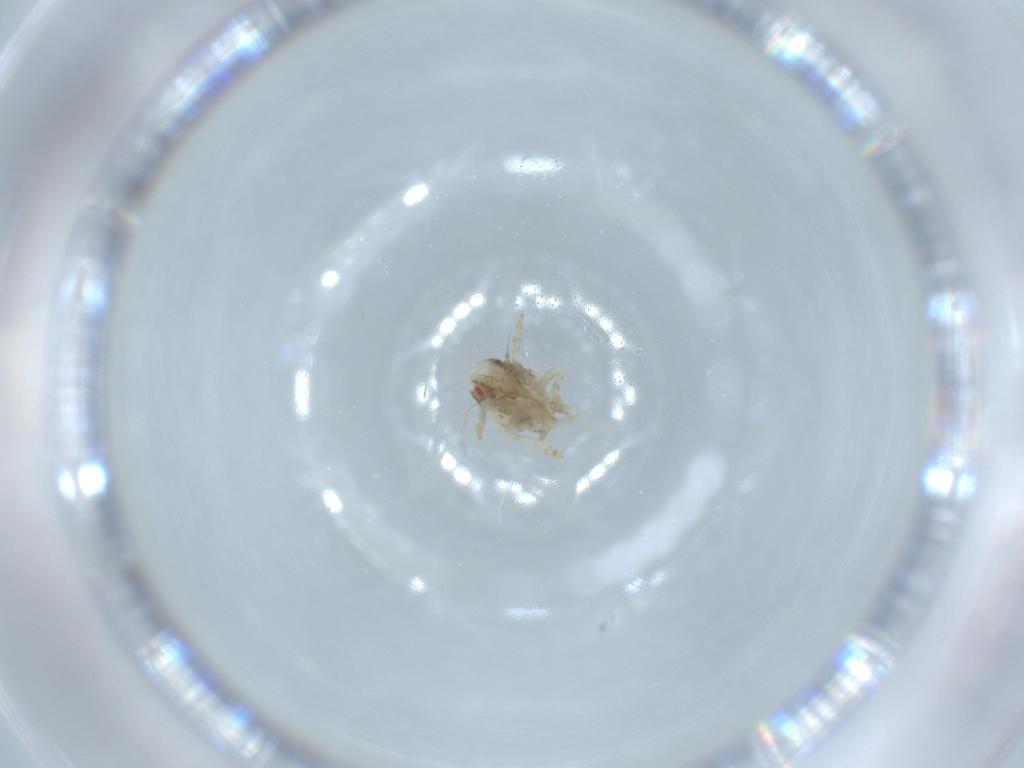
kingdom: Animalia
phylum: Arthropoda
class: Insecta
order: Hemiptera
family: Acanaloniidae
